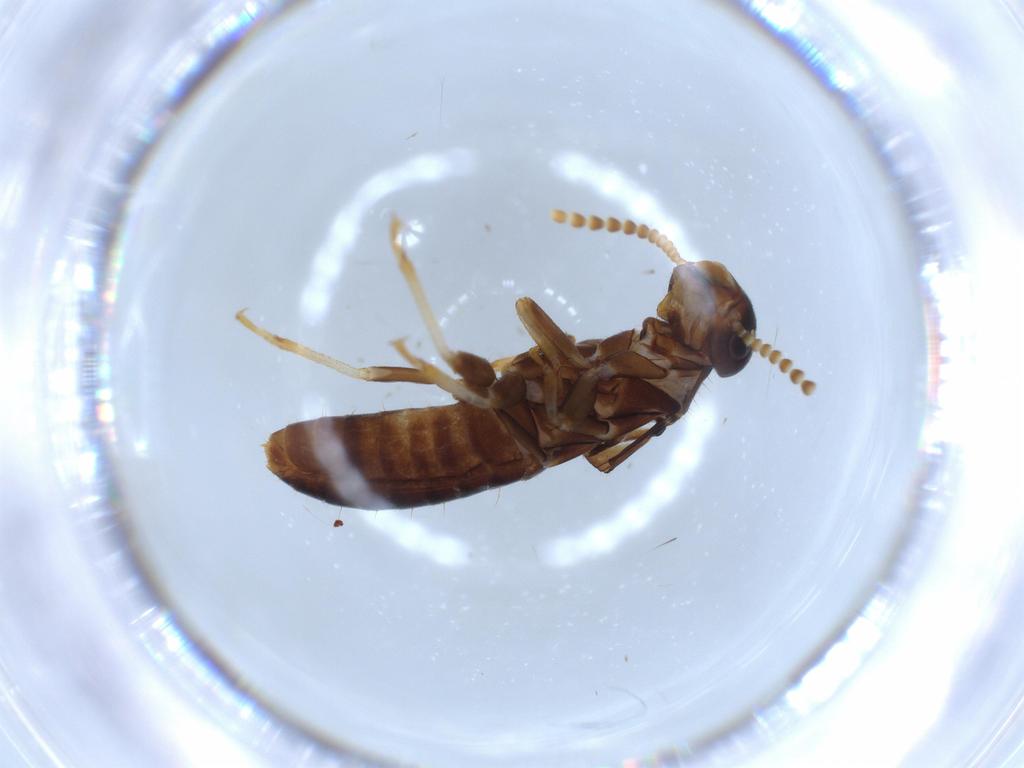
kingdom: Animalia
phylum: Arthropoda
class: Insecta
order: Blattodea
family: Kalotermitidae
